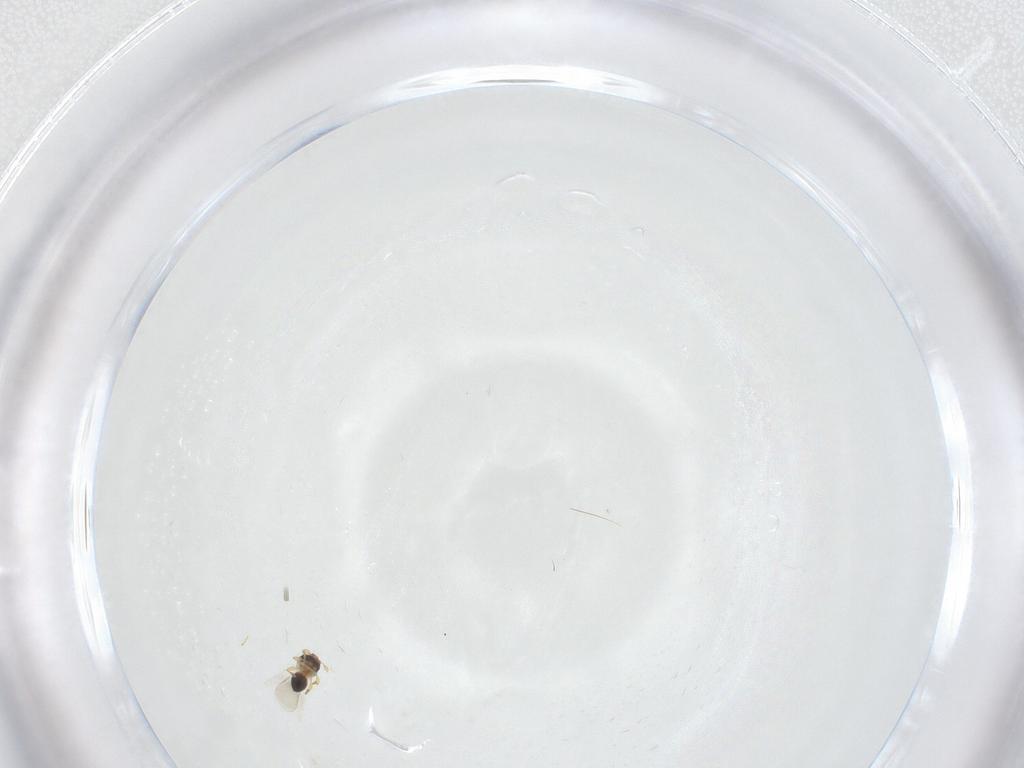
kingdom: Animalia
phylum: Arthropoda
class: Insecta
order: Hymenoptera
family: Platygastridae
